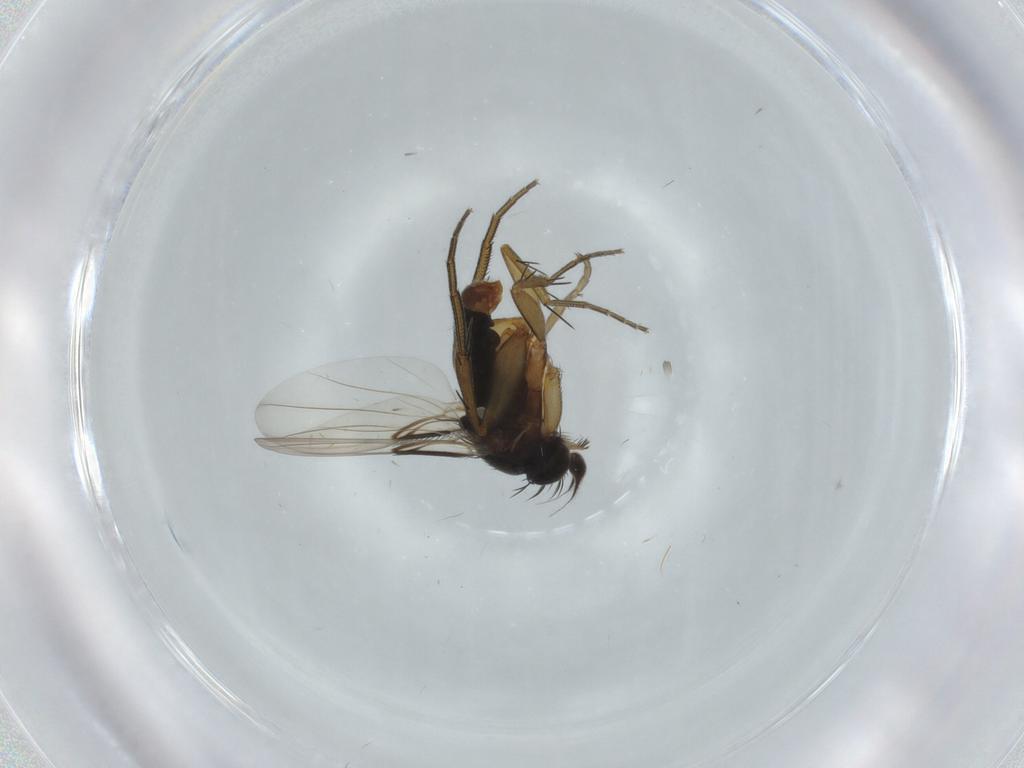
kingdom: Animalia
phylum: Arthropoda
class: Insecta
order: Diptera
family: Phoridae
